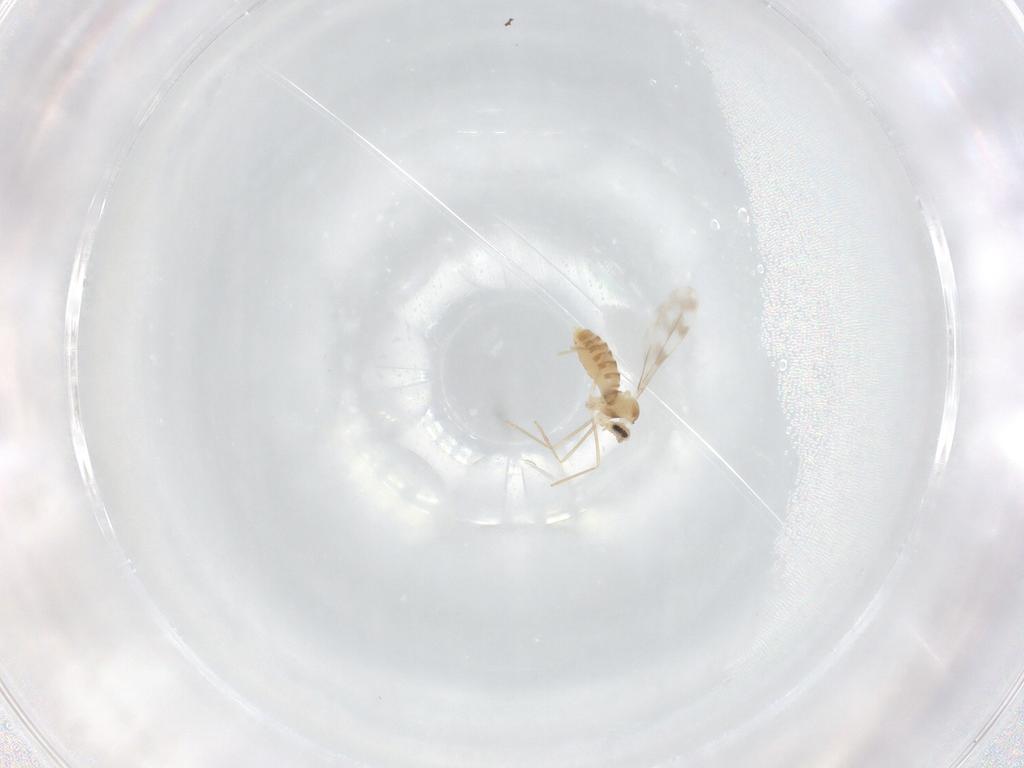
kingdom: Animalia
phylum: Arthropoda
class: Insecta
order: Diptera
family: Cecidomyiidae
